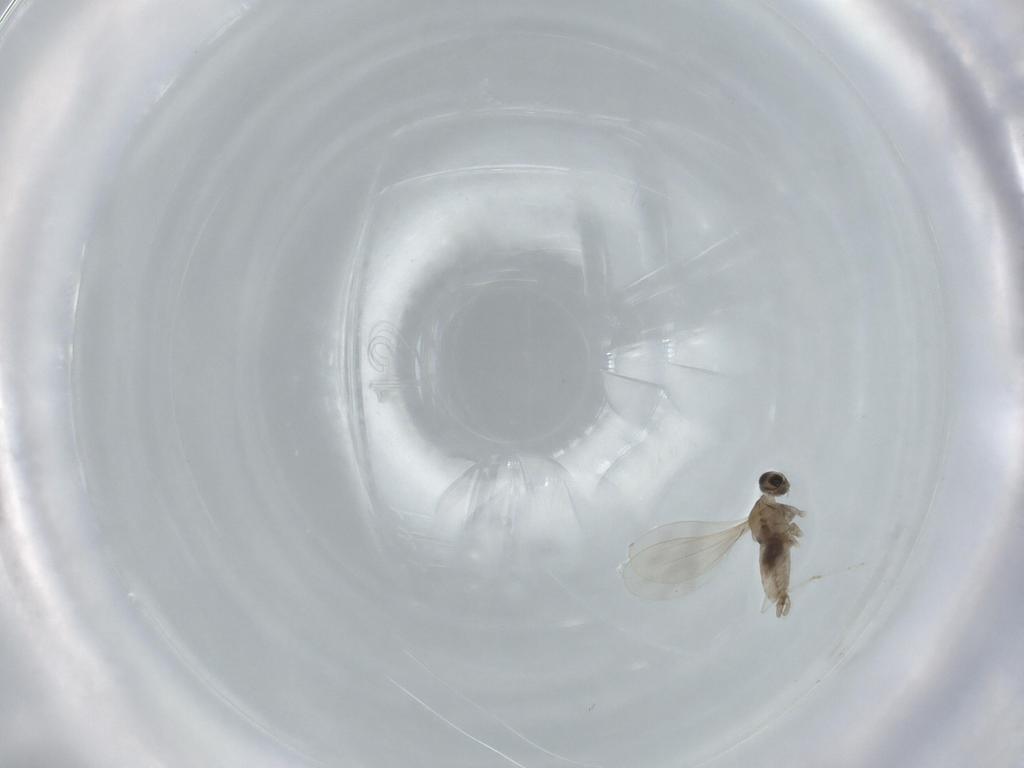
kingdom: Animalia
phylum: Arthropoda
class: Insecta
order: Diptera
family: Cecidomyiidae
